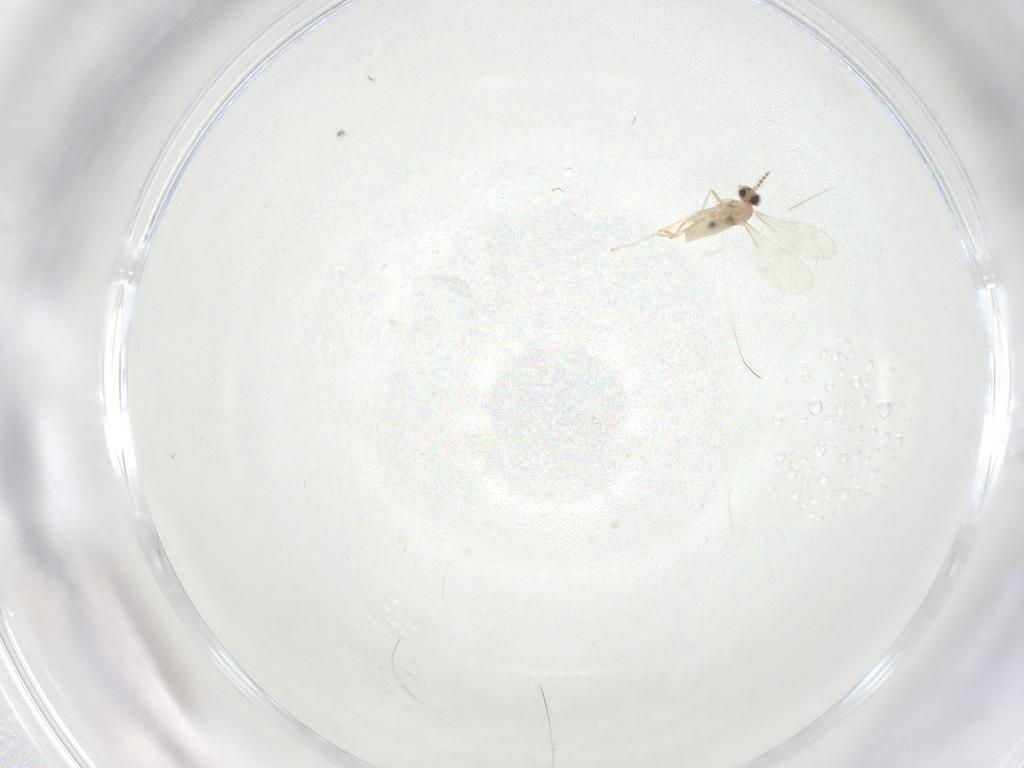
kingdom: Animalia
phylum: Arthropoda
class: Insecta
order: Diptera
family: Cecidomyiidae
